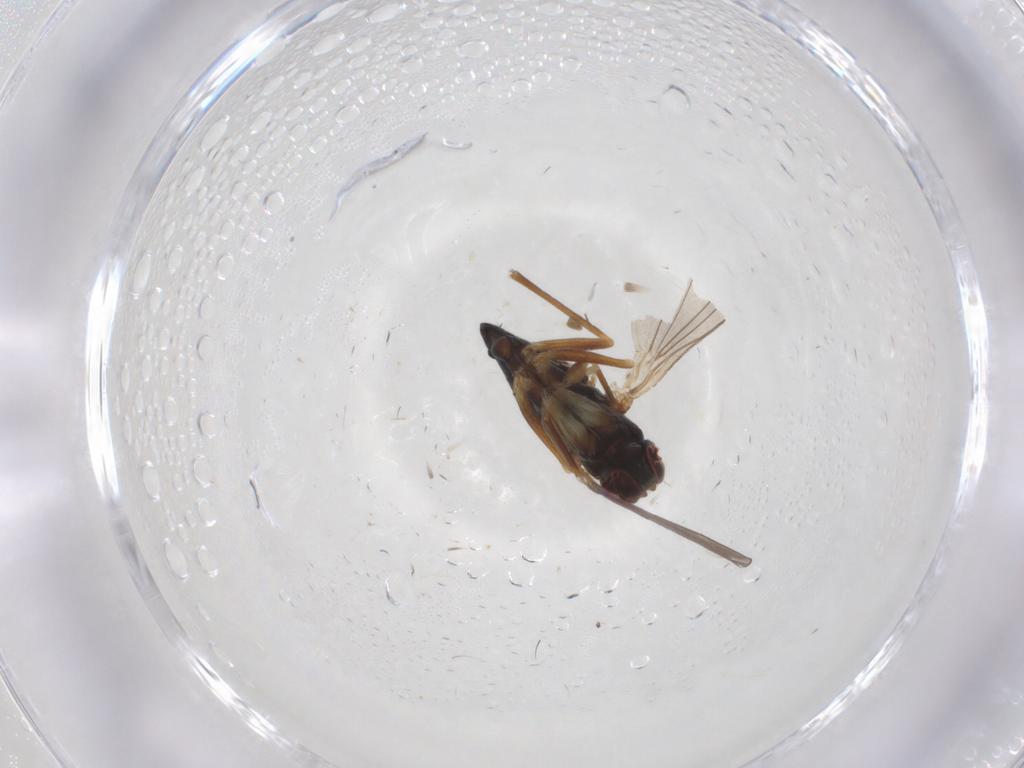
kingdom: Animalia
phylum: Arthropoda
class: Insecta
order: Diptera
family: Dolichopodidae
